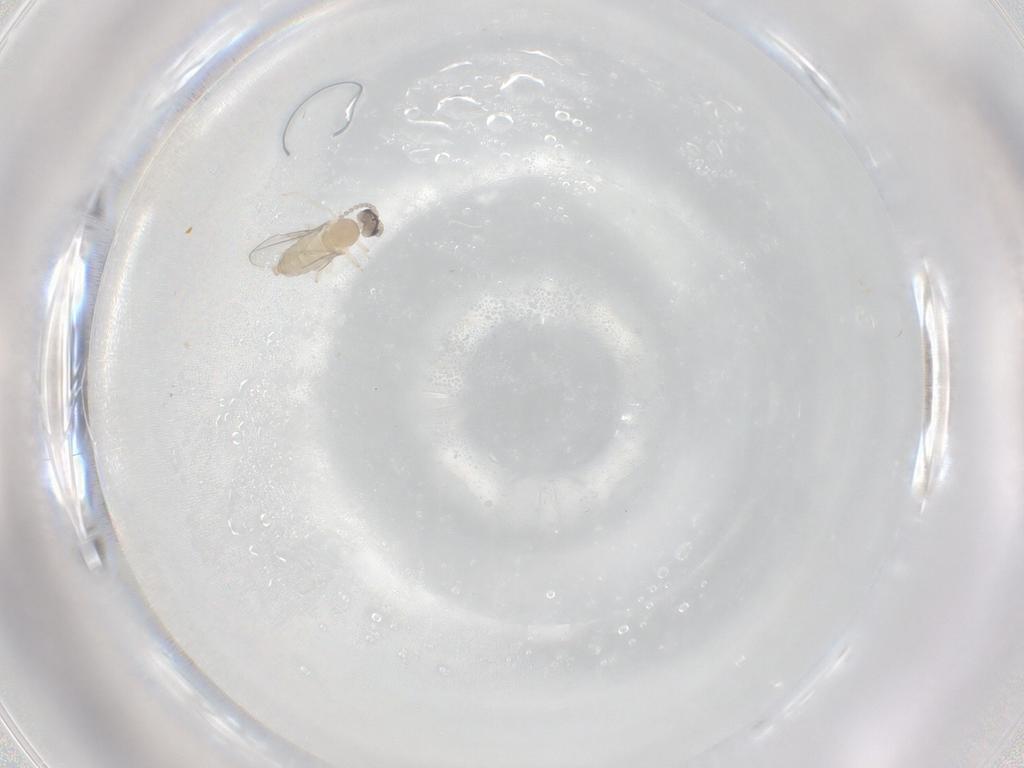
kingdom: Animalia
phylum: Arthropoda
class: Insecta
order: Diptera
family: Cecidomyiidae
